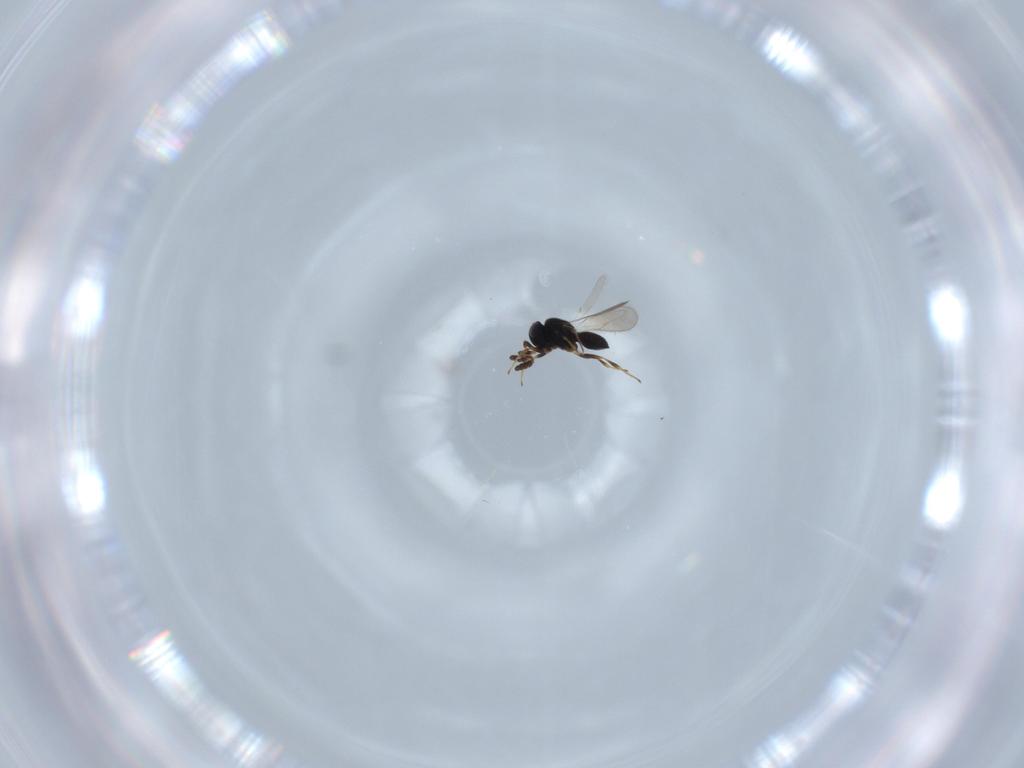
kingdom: Animalia
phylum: Arthropoda
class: Insecta
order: Hymenoptera
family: Scelionidae
